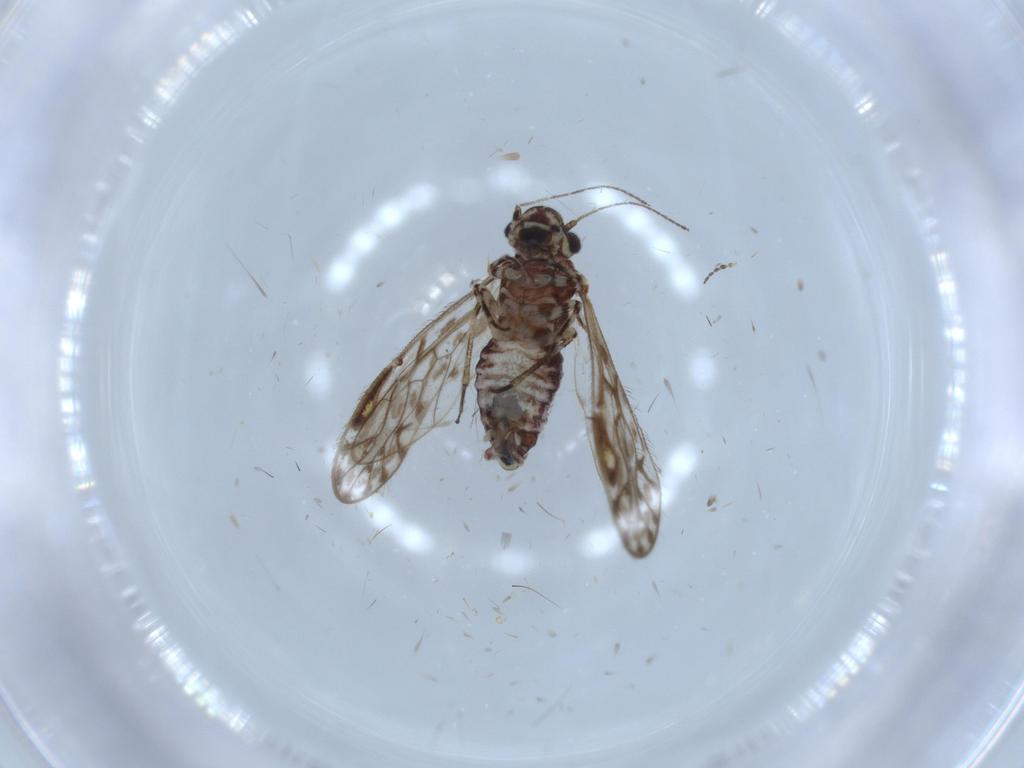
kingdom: Animalia
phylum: Arthropoda
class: Insecta
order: Psocodea
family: Philotarsidae
